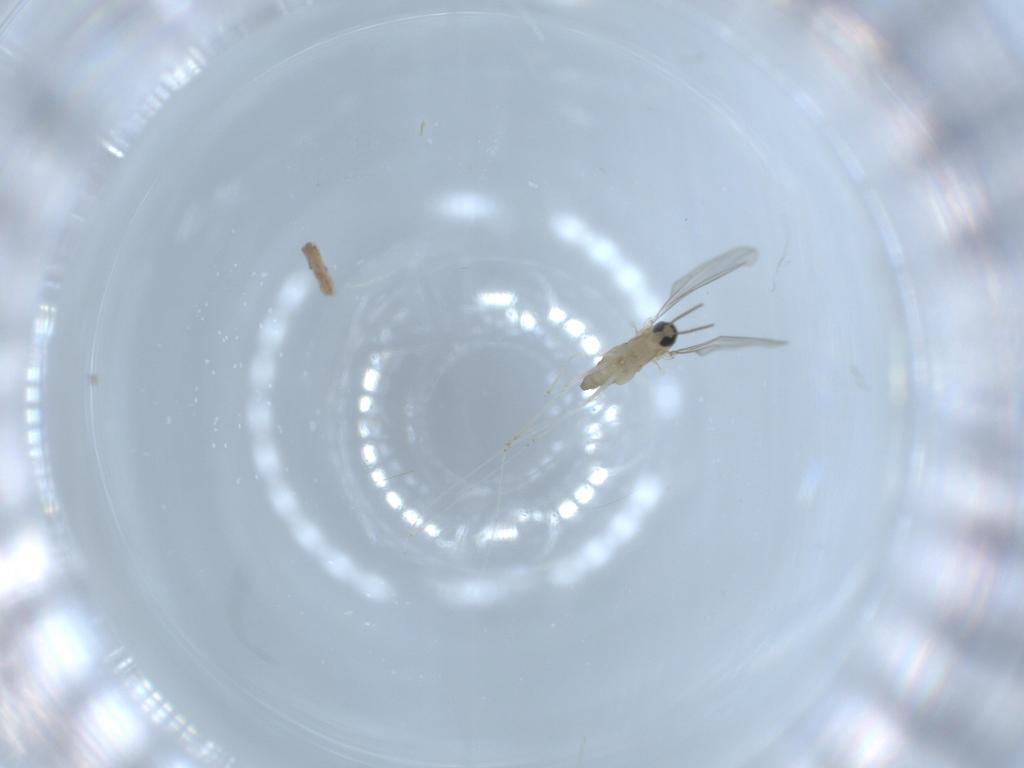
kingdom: Animalia
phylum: Arthropoda
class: Insecta
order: Diptera
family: Cecidomyiidae
